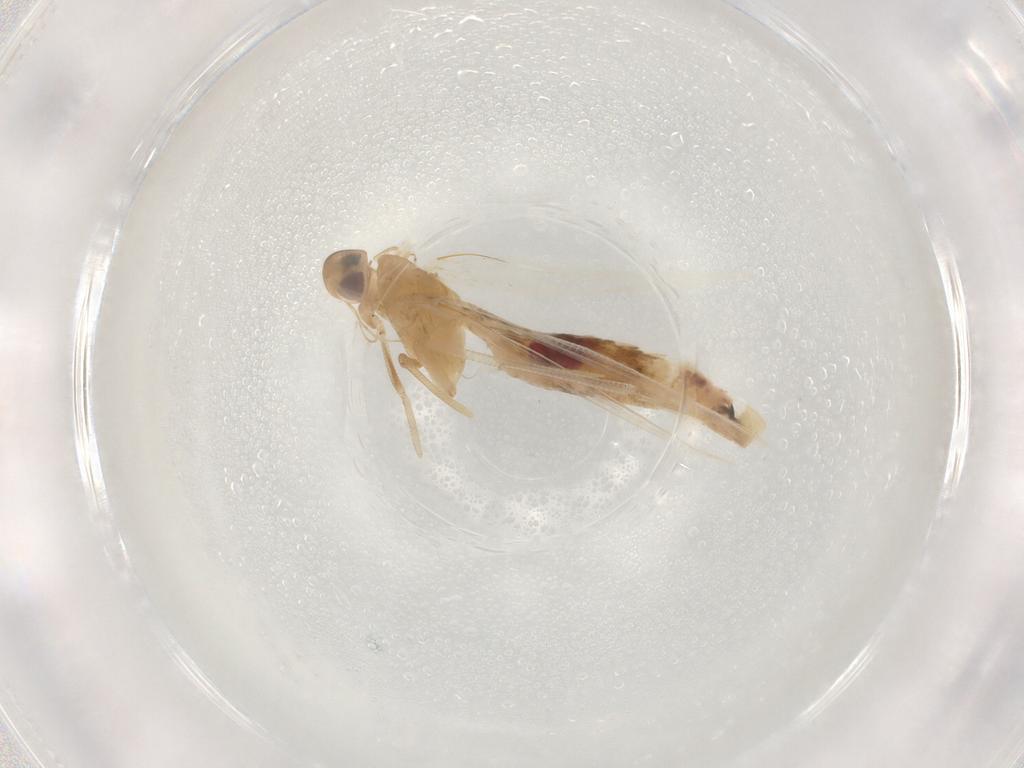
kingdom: Animalia
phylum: Arthropoda
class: Insecta
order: Lepidoptera
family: Cosmopterigidae
